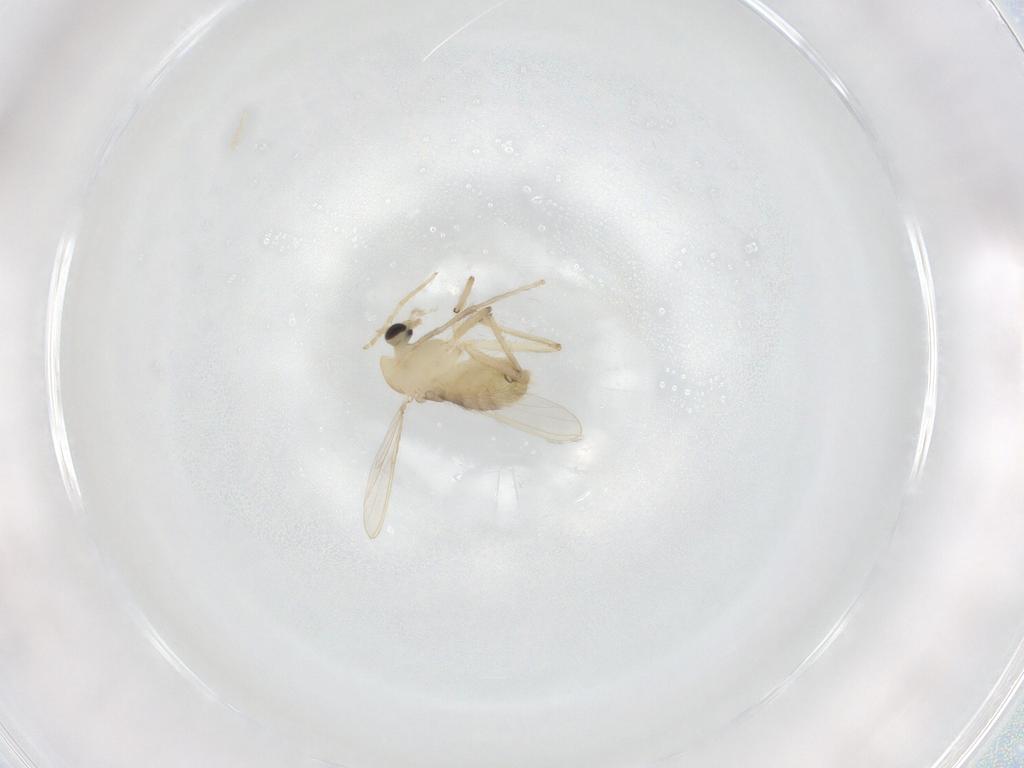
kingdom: Animalia
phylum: Arthropoda
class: Insecta
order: Diptera
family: Chironomidae
